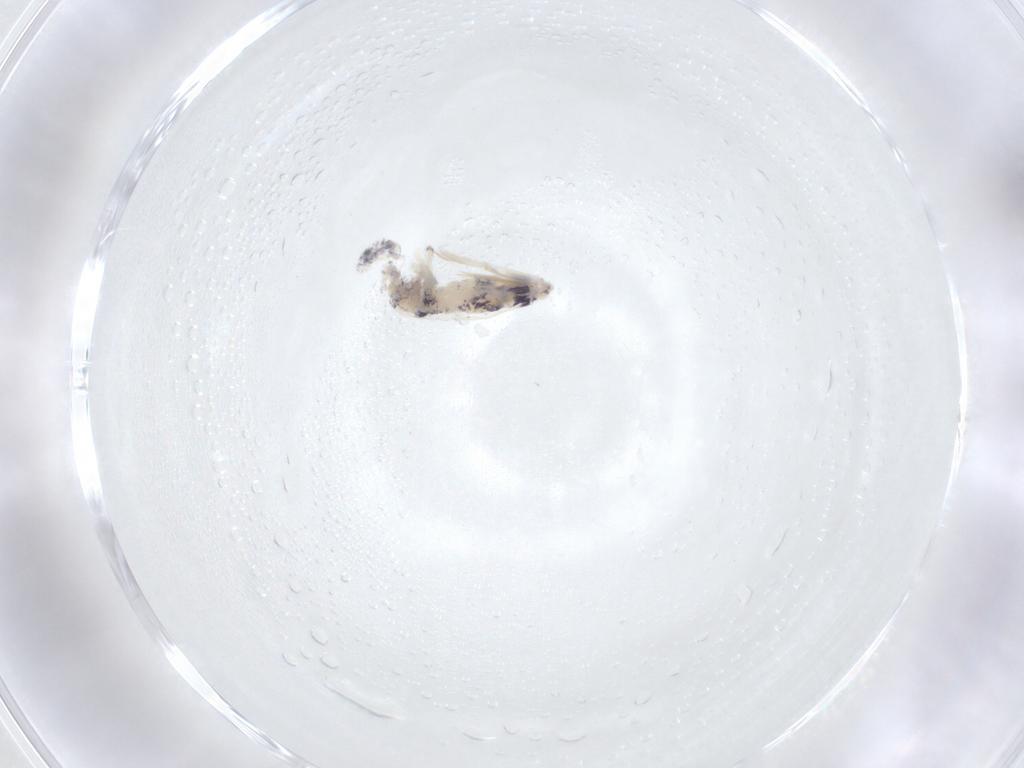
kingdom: Animalia
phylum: Arthropoda
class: Collembola
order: Entomobryomorpha
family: Entomobryidae
